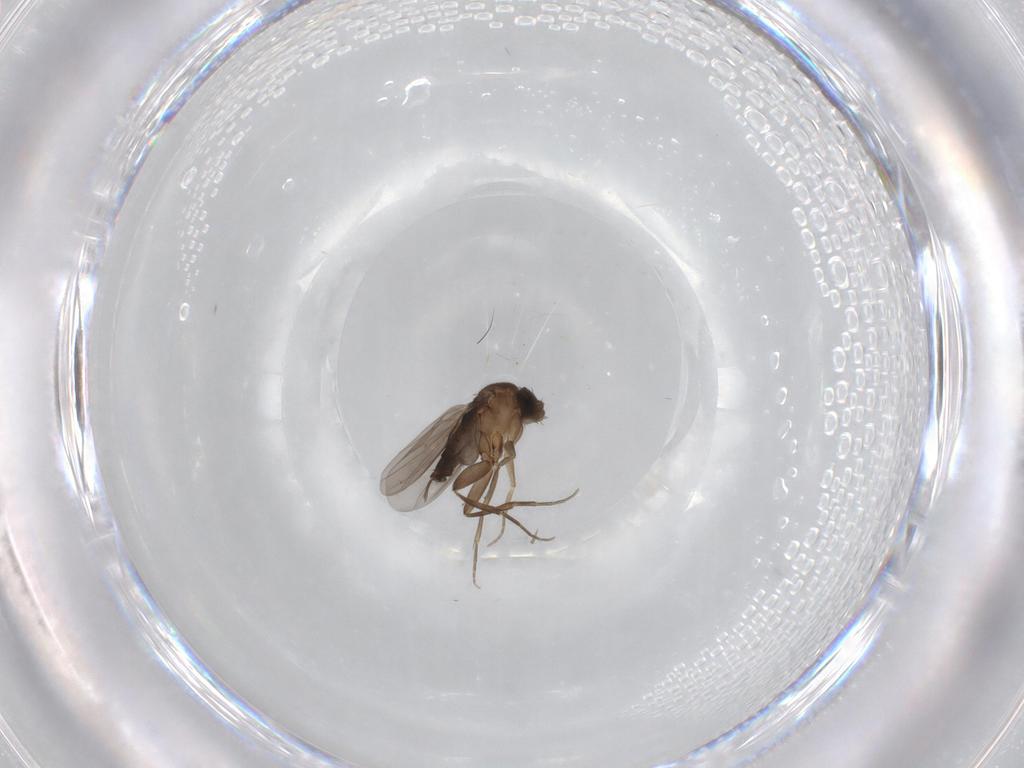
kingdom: Animalia
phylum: Arthropoda
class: Insecta
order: Diptera
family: Phoridae
